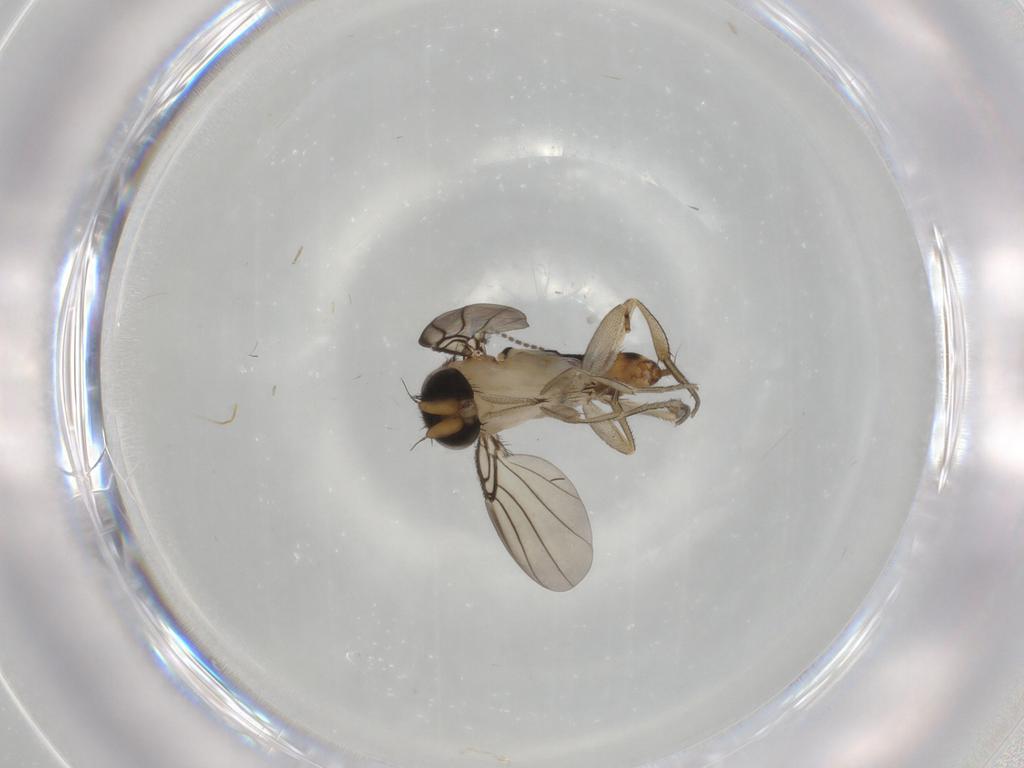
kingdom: Animalia
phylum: Arthropoda
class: Insecta
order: Diptera
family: Phoridae
